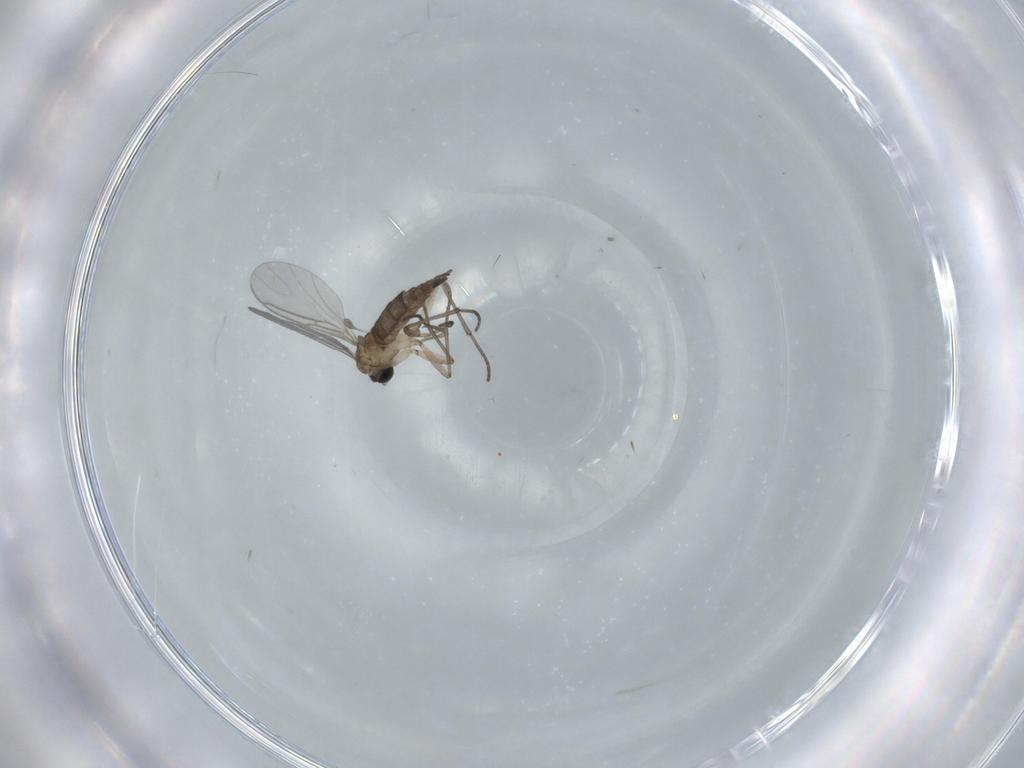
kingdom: Animalia
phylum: Arthropoda
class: Insecta
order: Diptera
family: Sciaridae
